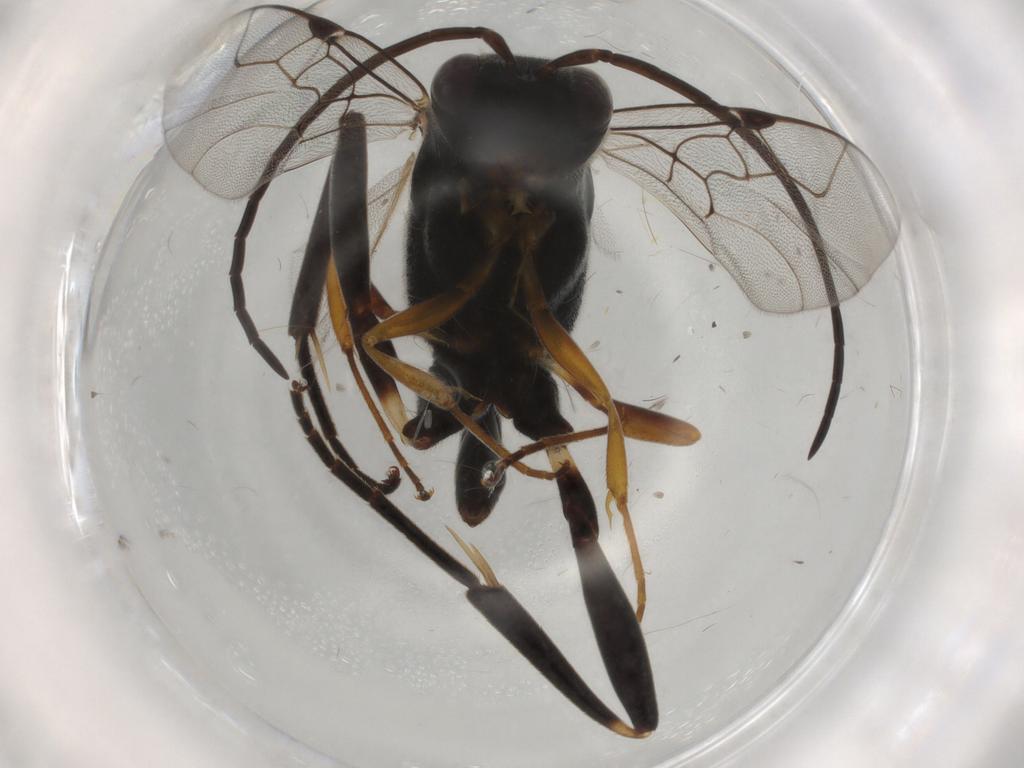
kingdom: Animalia
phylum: Arthropoda
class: Insecta
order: Hymenoptera
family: Evaniidae
